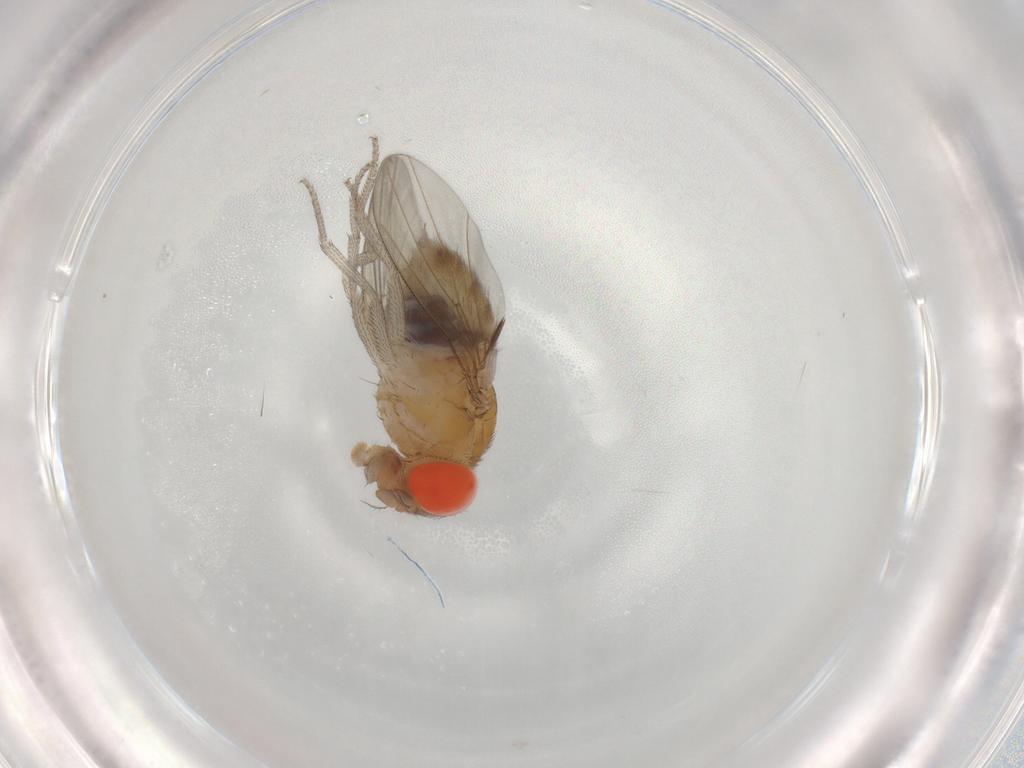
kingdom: Animalia
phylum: Arthropoda
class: Insecta
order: Diptera
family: Drosophilidae
